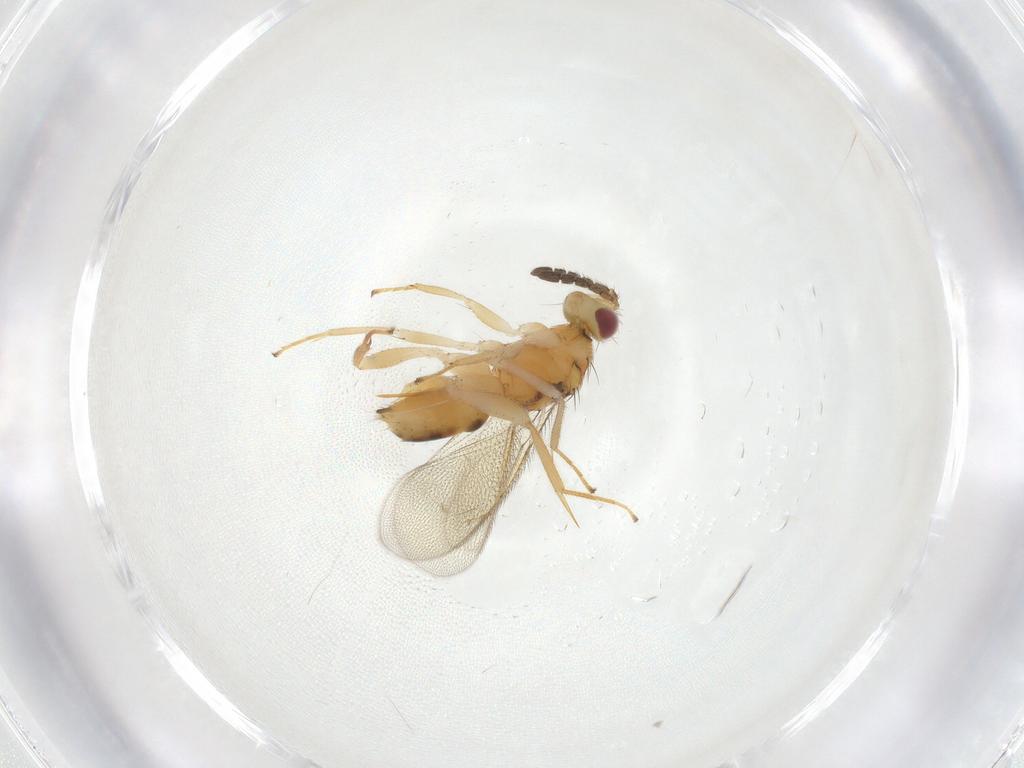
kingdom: Animalia
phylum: Arthropoda
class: Insecta
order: Hymenoptera
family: Eulophidae
